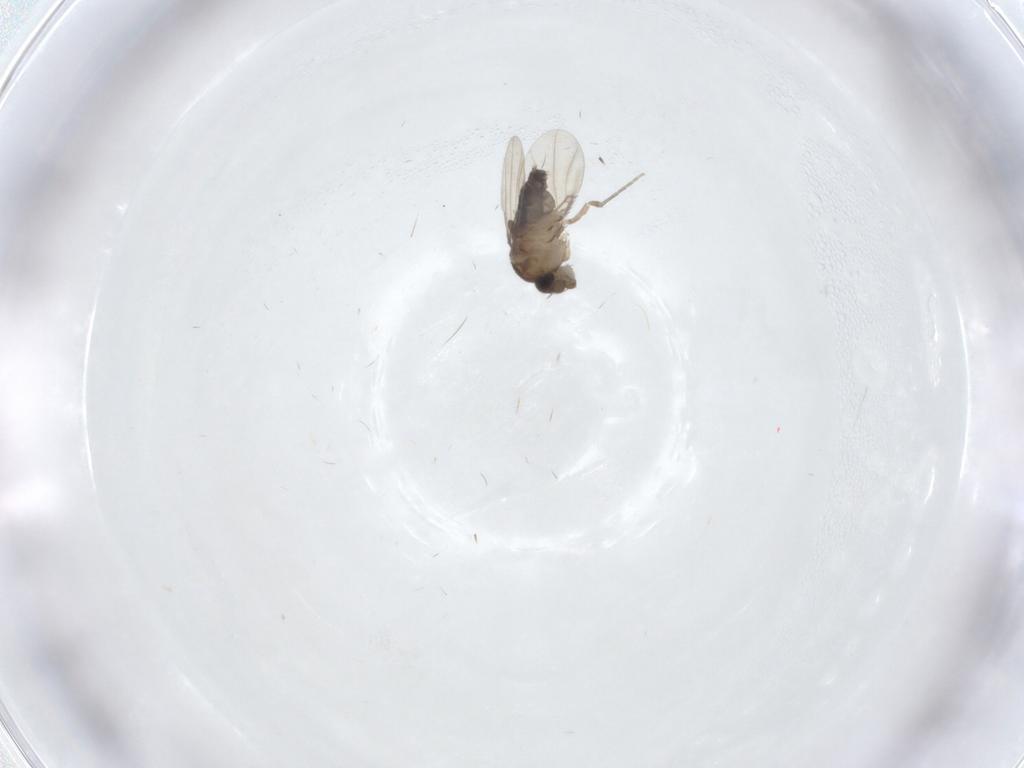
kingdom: Animalia
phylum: Arthropoda
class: Insecta
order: Diptera
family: Phoridae
